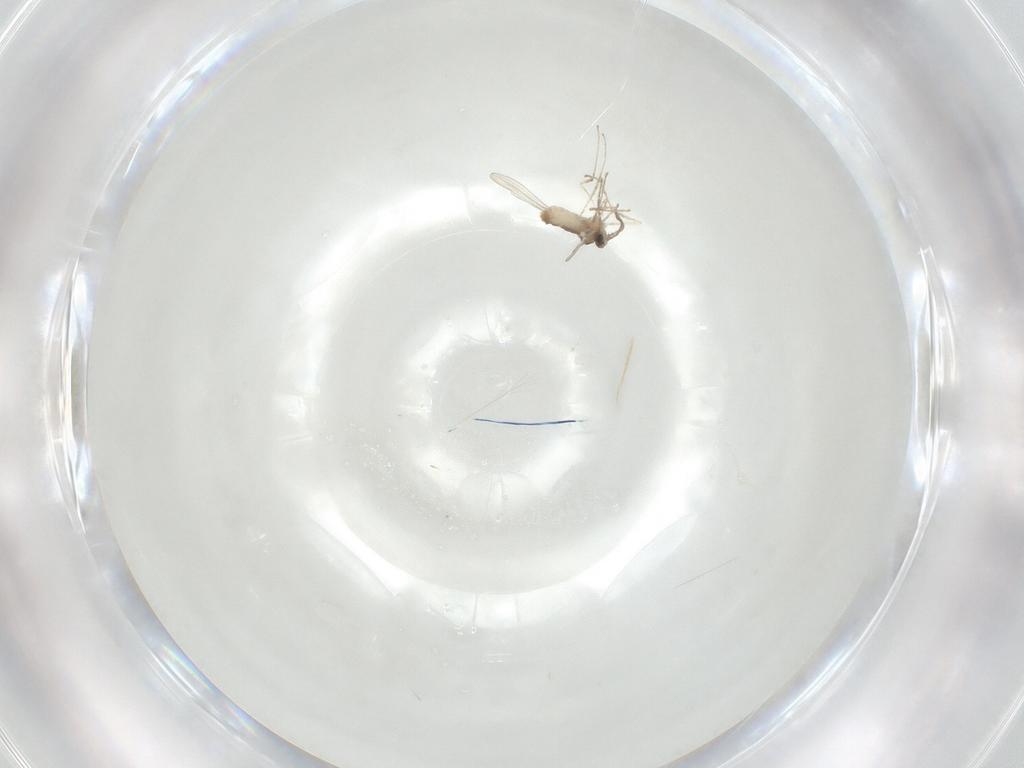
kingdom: Animalia
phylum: Arthropoda
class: Insecta
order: Diptera
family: Cecidomyiidae
